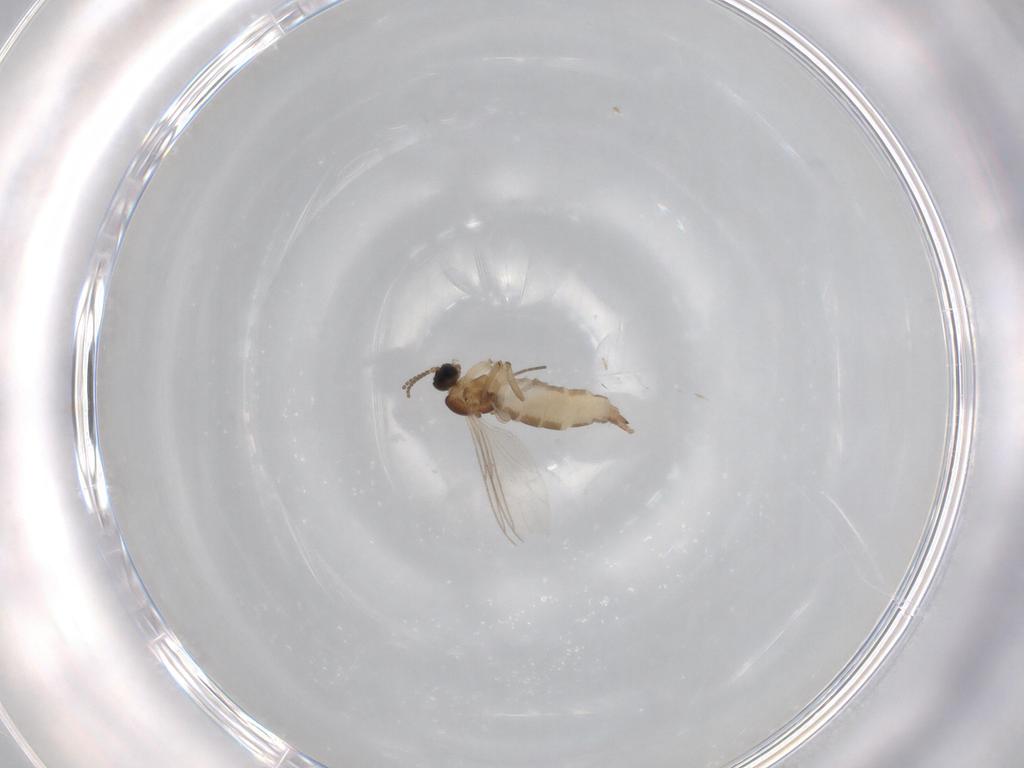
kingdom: Animalia
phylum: Arthropoda
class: Insecta
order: Diptera
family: Sciaridae
